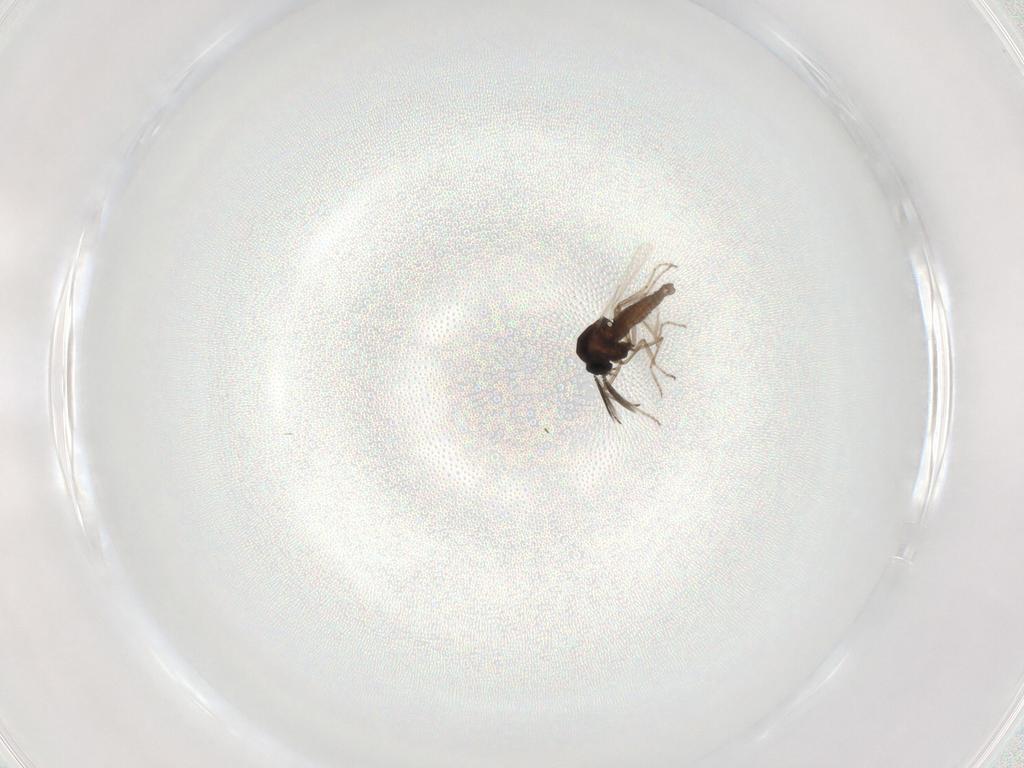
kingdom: Animalia
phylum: Arthropoda
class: Insecta
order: Diptera
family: Ceratopogonidae
